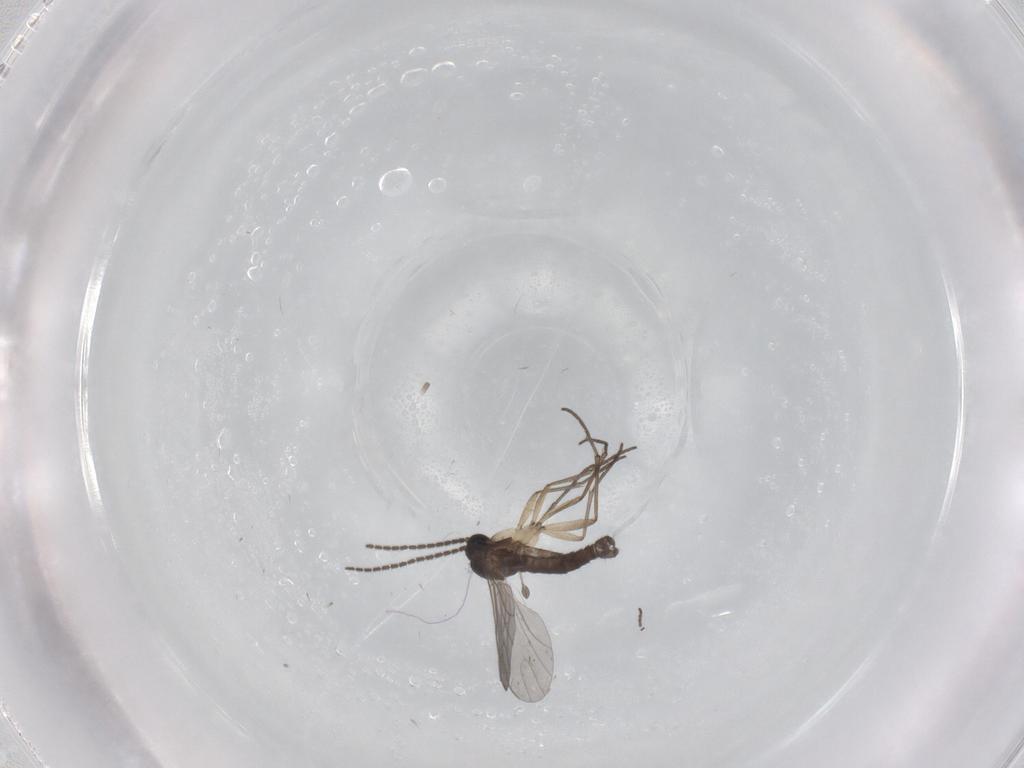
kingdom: Animalia
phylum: Arthropoda
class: Insecta
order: Diptera
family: Sciaridae
